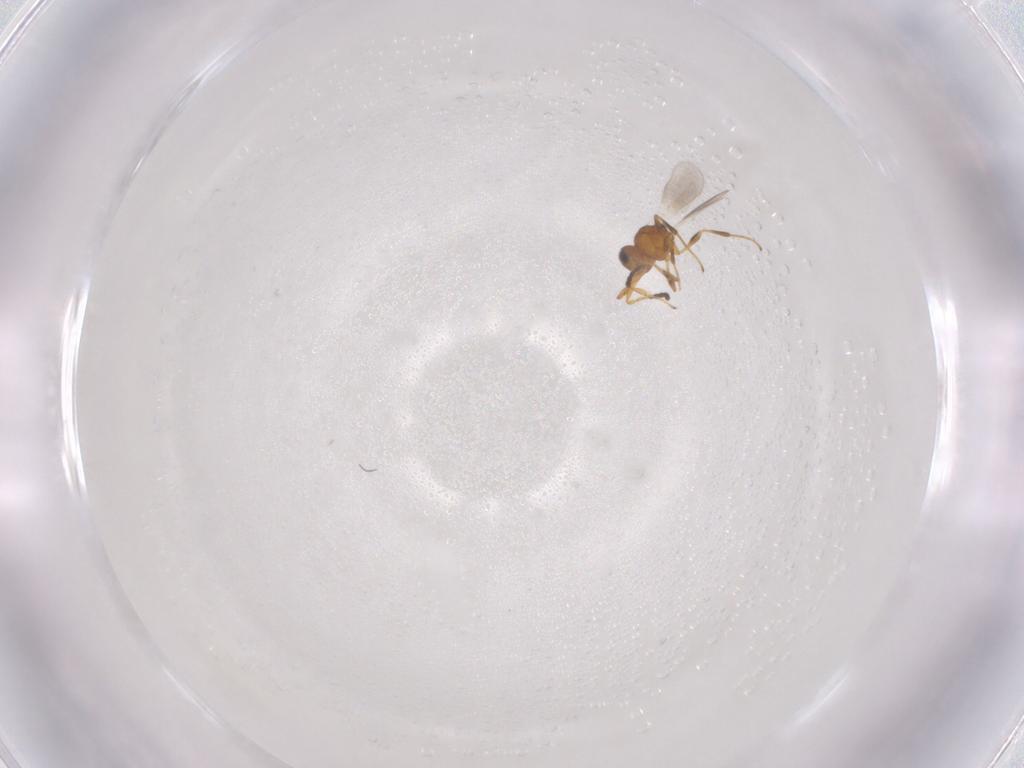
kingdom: Animalia
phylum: Arthropoda
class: Insecta
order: Hymenoptera
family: Platygastridae
